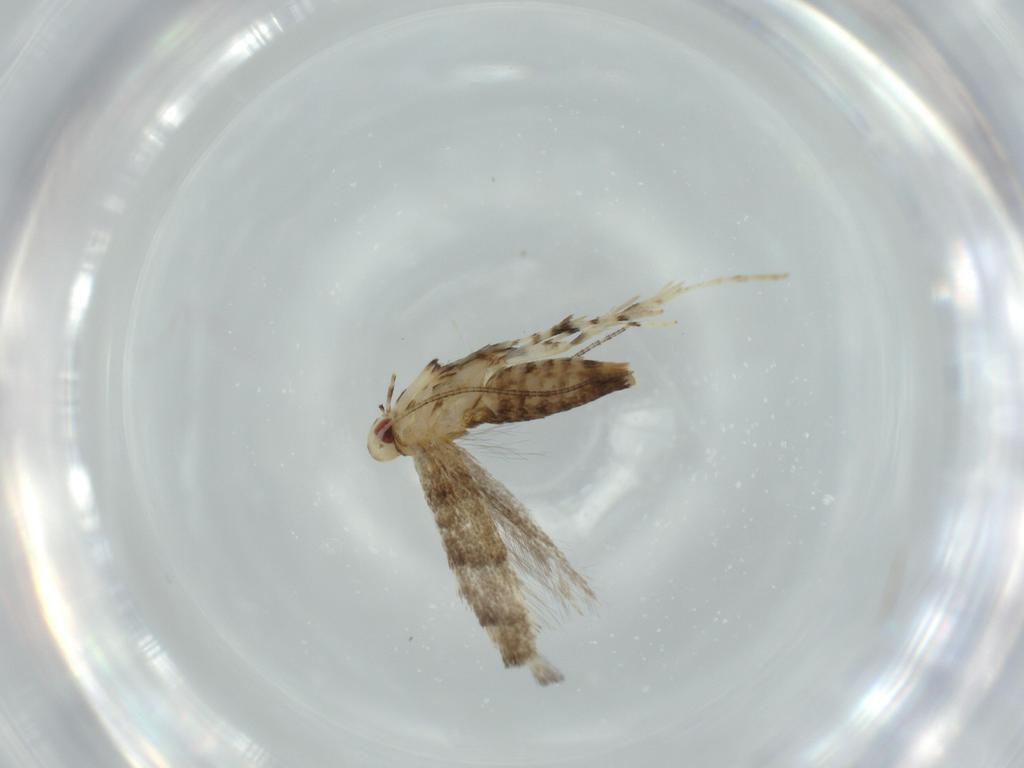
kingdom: Animalia
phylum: Arthropoda
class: Insecta
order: Lepidoptera
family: Gracillariidae
